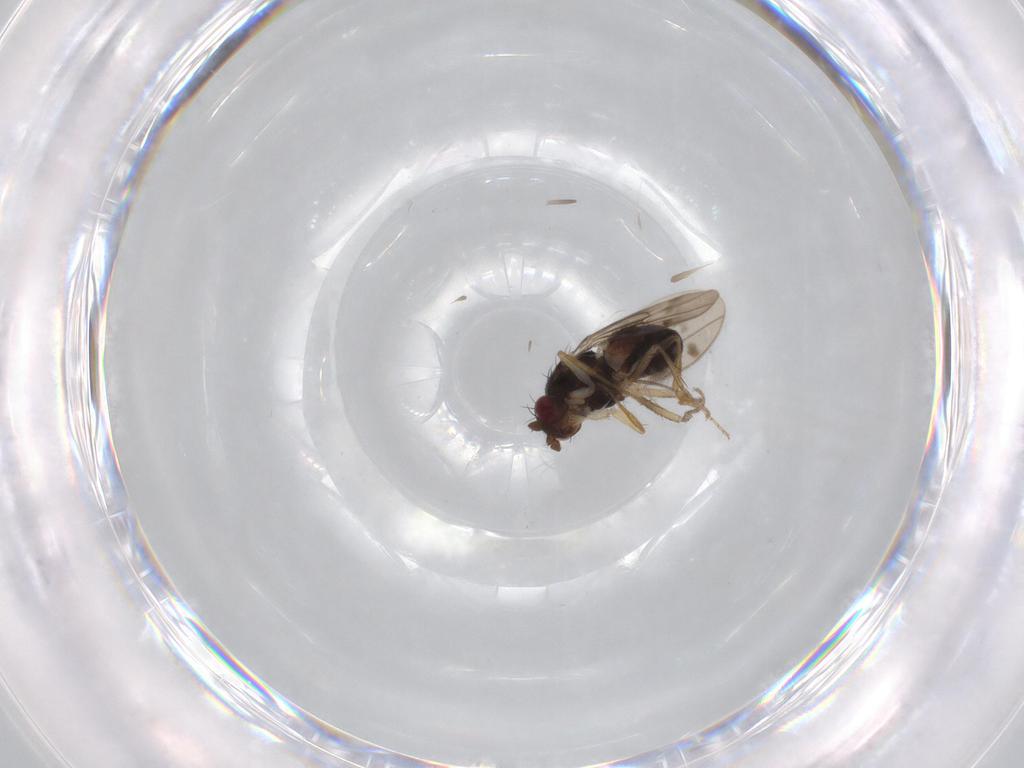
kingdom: Animalia
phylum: Arthropoda
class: Insecta
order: Diptera
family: Sphaeroceridae
